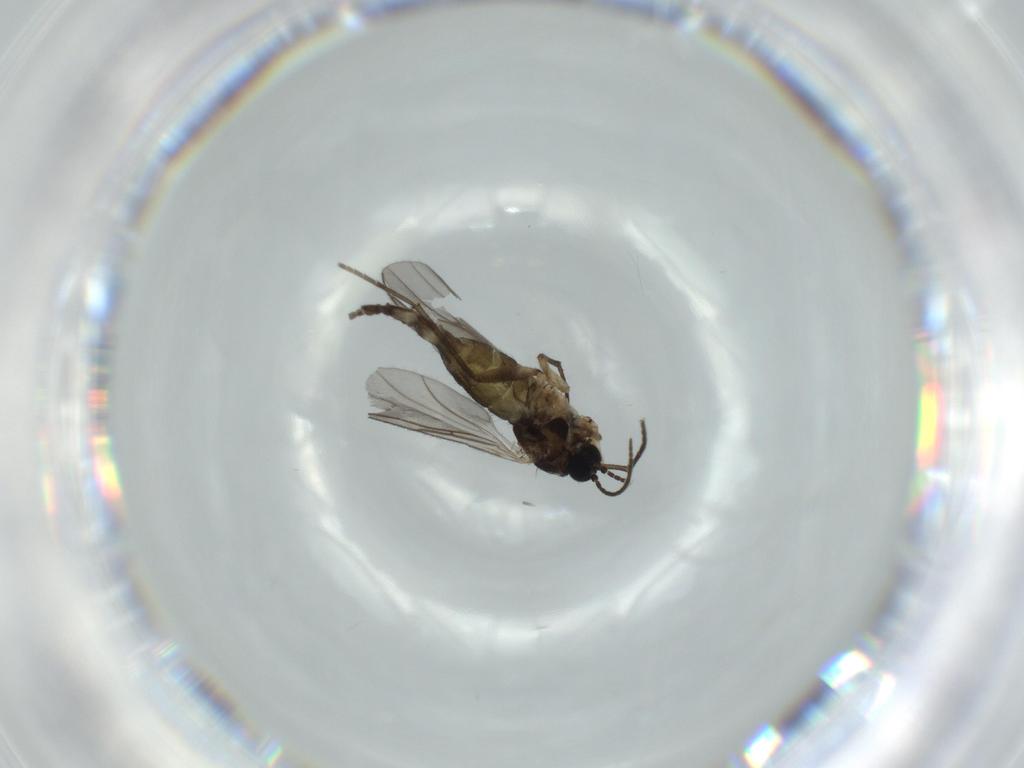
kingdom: Animalia
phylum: Arthropoda
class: Insecta
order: Diptera
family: Sciaridae
